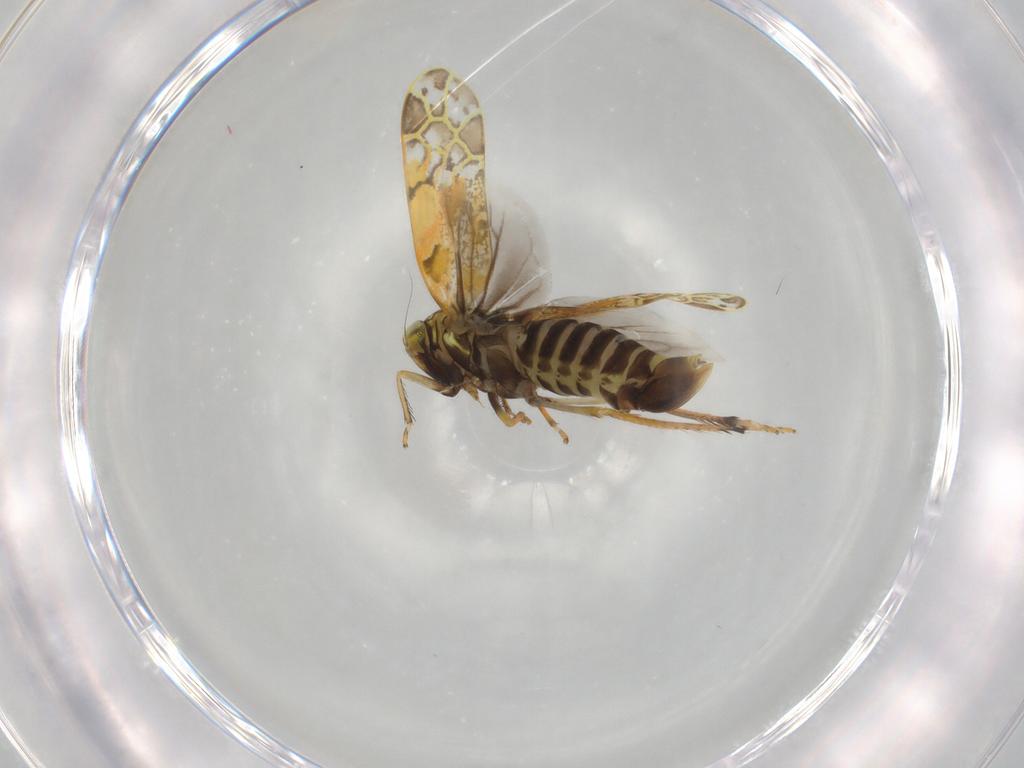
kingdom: Animalia
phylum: Arthropoda
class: Insecta
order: Hemiptera
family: Cicadellidae
